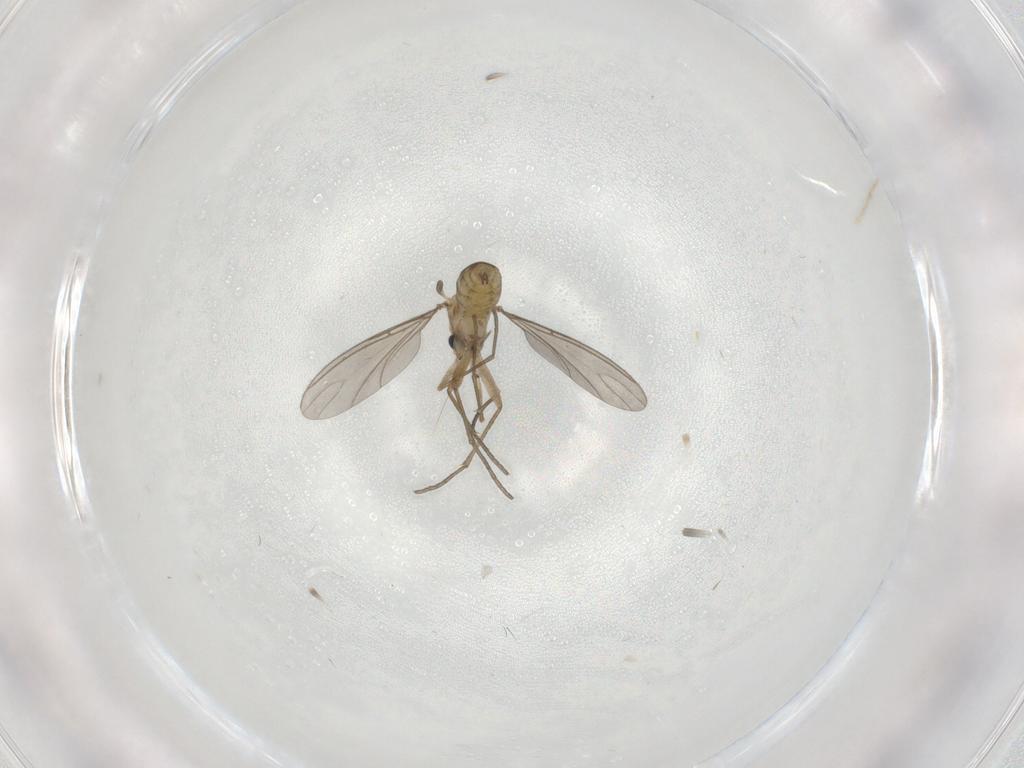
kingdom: Animalia
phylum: Arthropoda
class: Insecta
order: Diptera
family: Sciaridae
